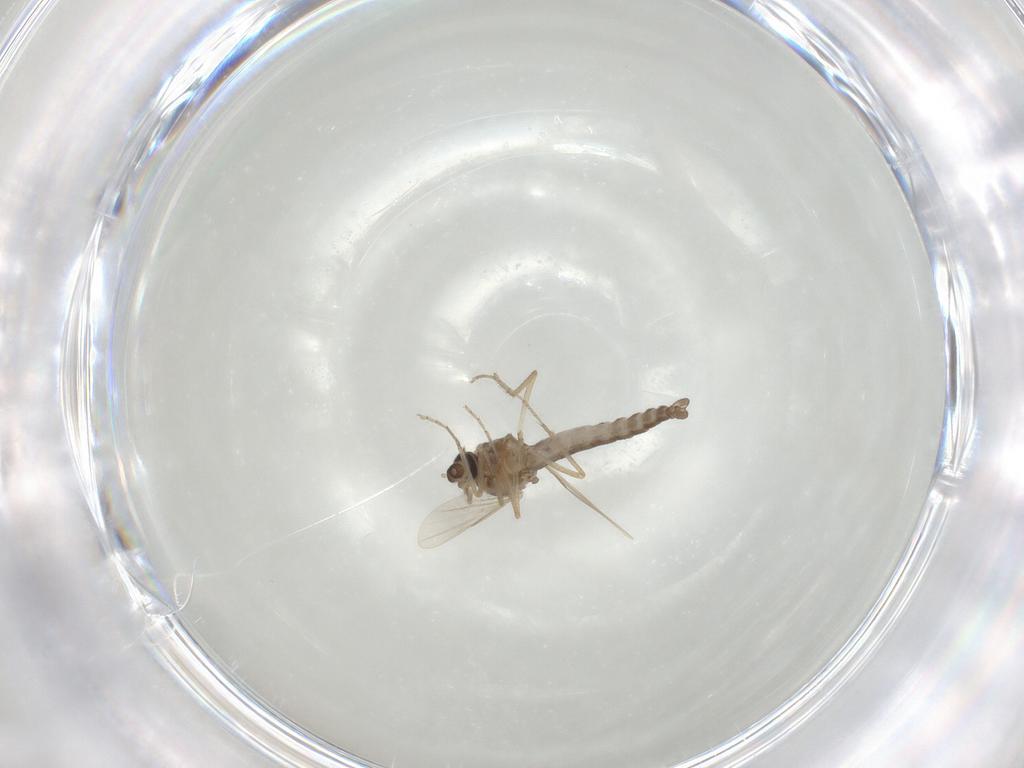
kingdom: Animalia
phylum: Arthropoda
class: Insecta
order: Diptera
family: Ceratopogonidae
